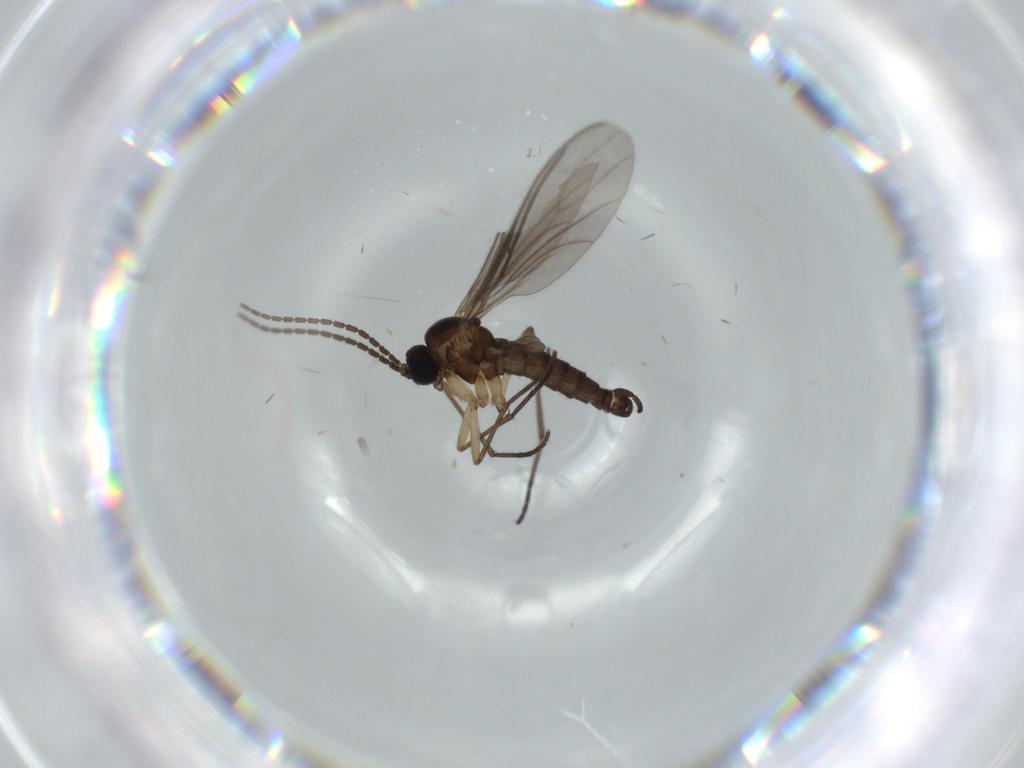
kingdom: Animalia
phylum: Arthropoda
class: Insecta
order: Diptera
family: Sciaridae
